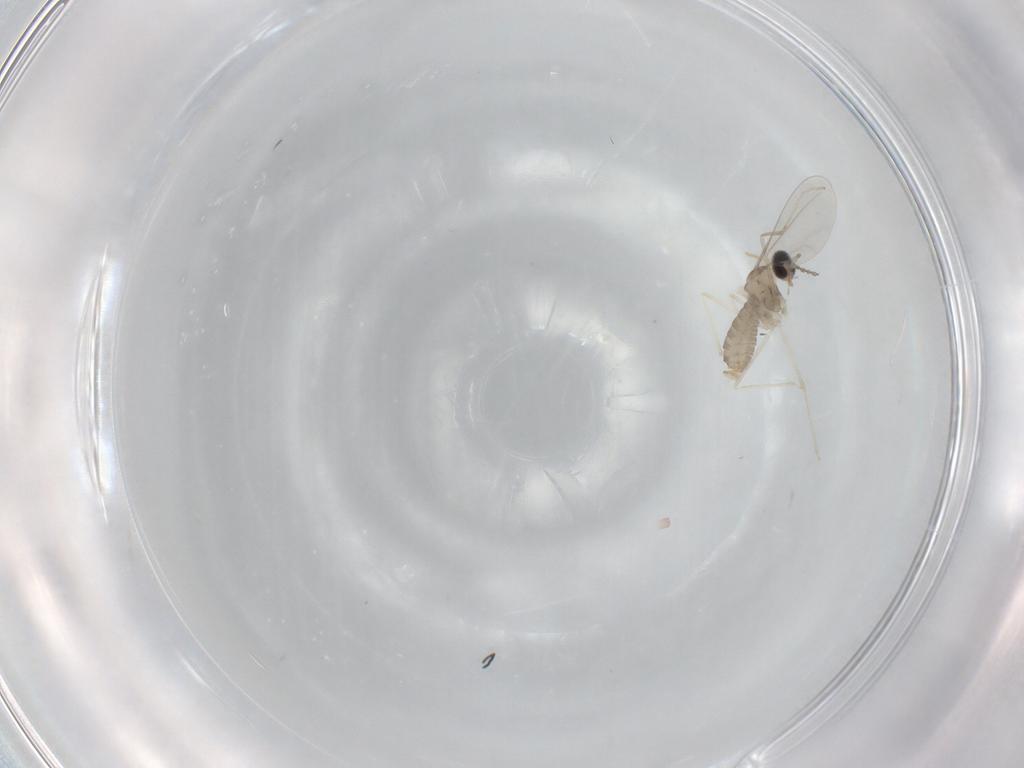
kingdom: Animalia
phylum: Arthropoda
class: Insecta
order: Diptera
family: Cecidomyiidae
